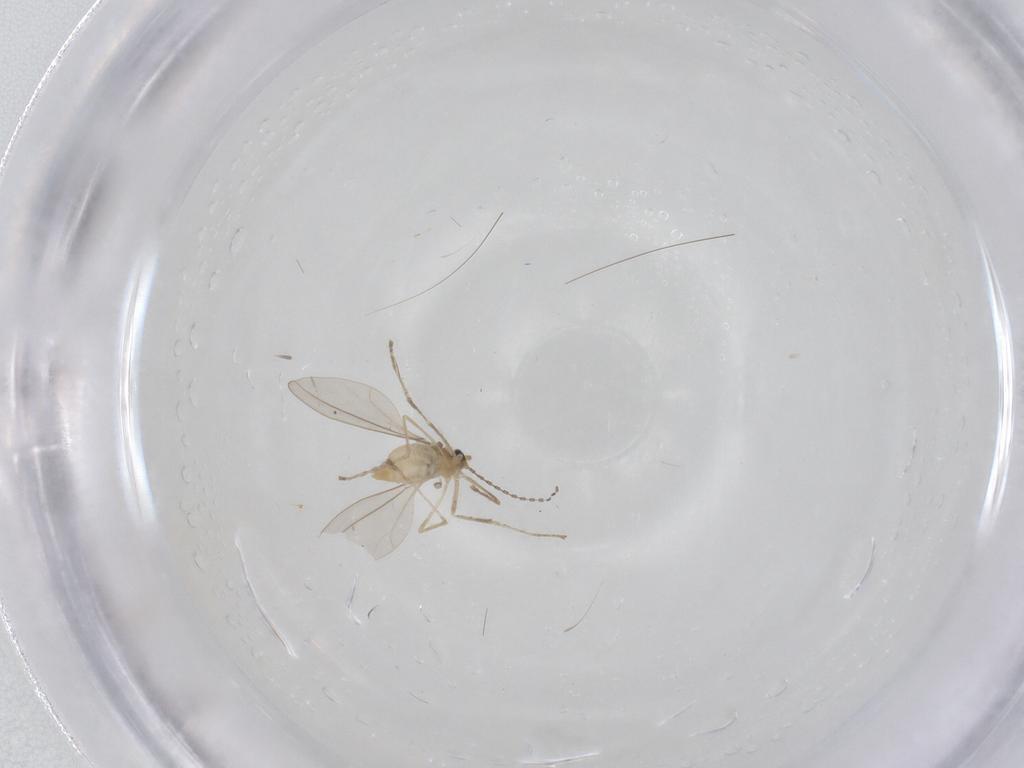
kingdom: Animalia
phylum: Arthropoda
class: Insecta
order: Diptera
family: Cecidomyiidae
